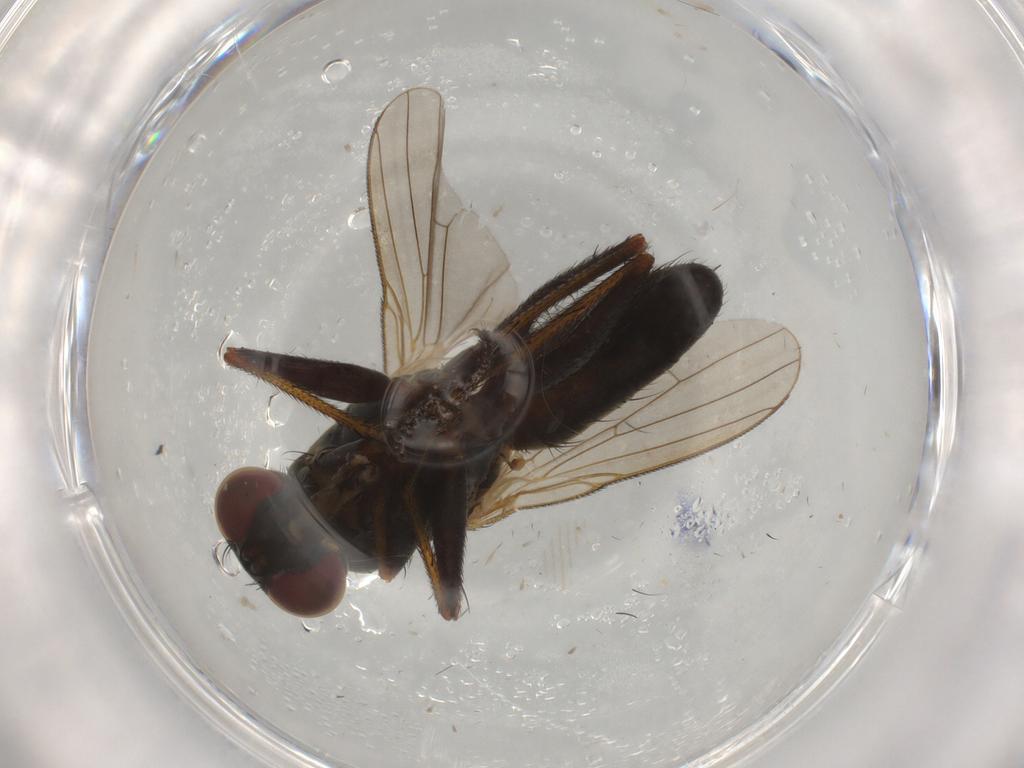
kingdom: Animalia
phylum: Arthropoda
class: Insecta
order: Diptera
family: Muscidae
